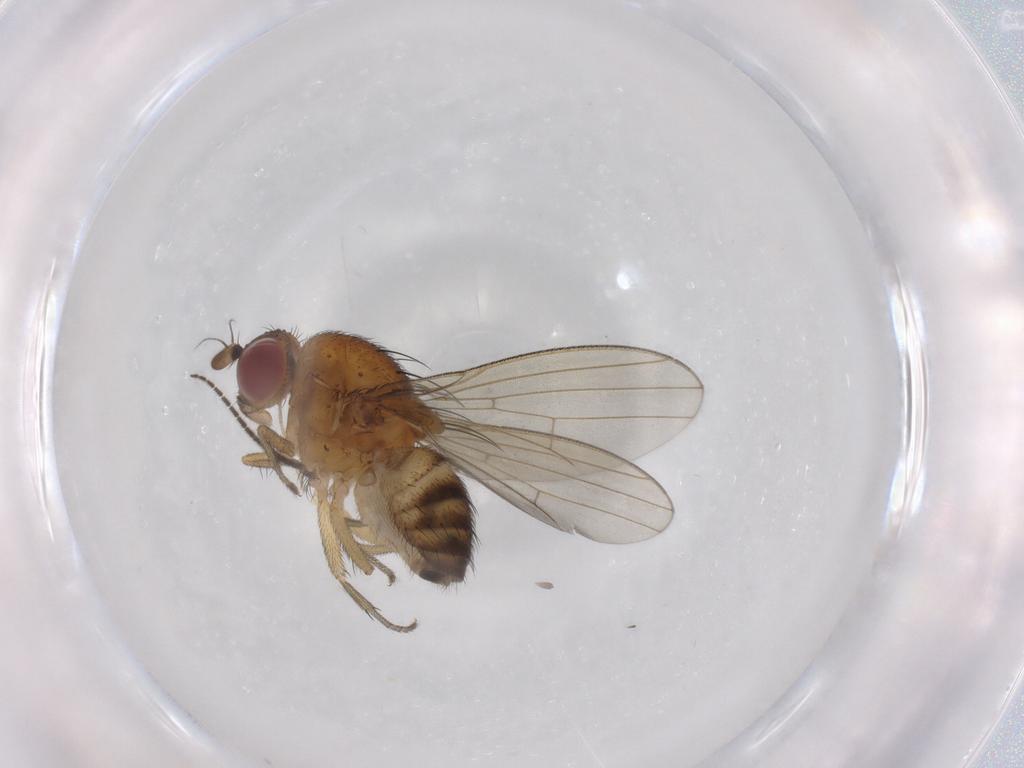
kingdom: Animalia
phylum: Arthropoda
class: Insecta
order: Diptera
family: Sciaridae
